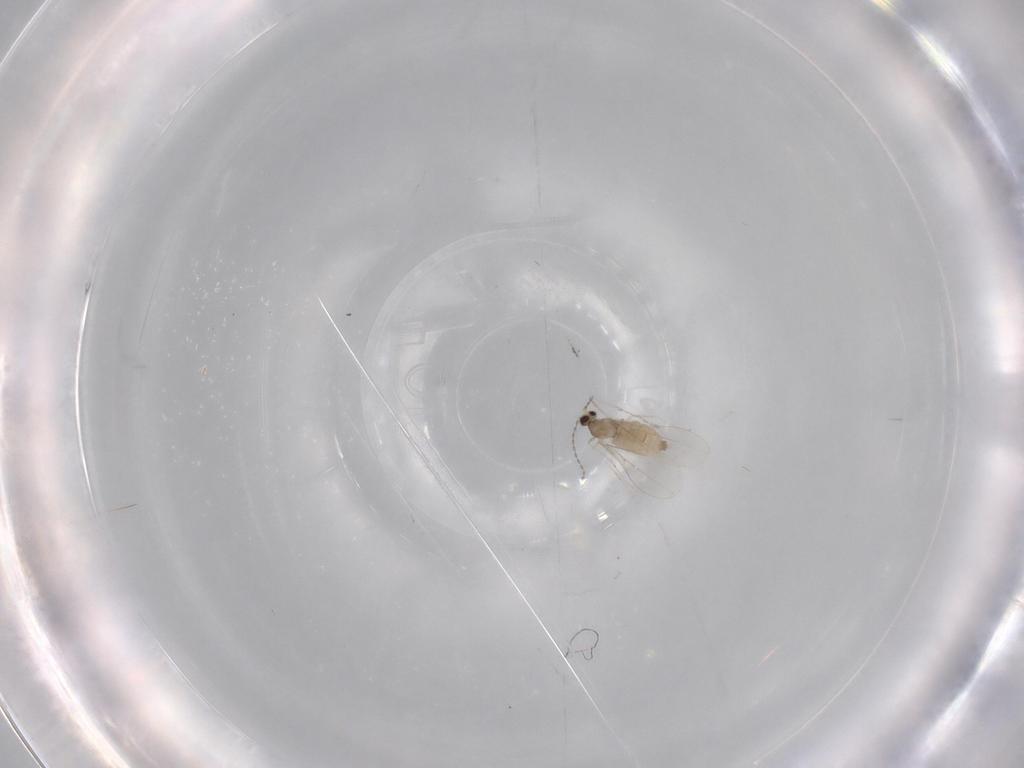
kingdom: Animalia
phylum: Arthropoda
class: Insecta
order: Diptera
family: Cecidomyiidae
